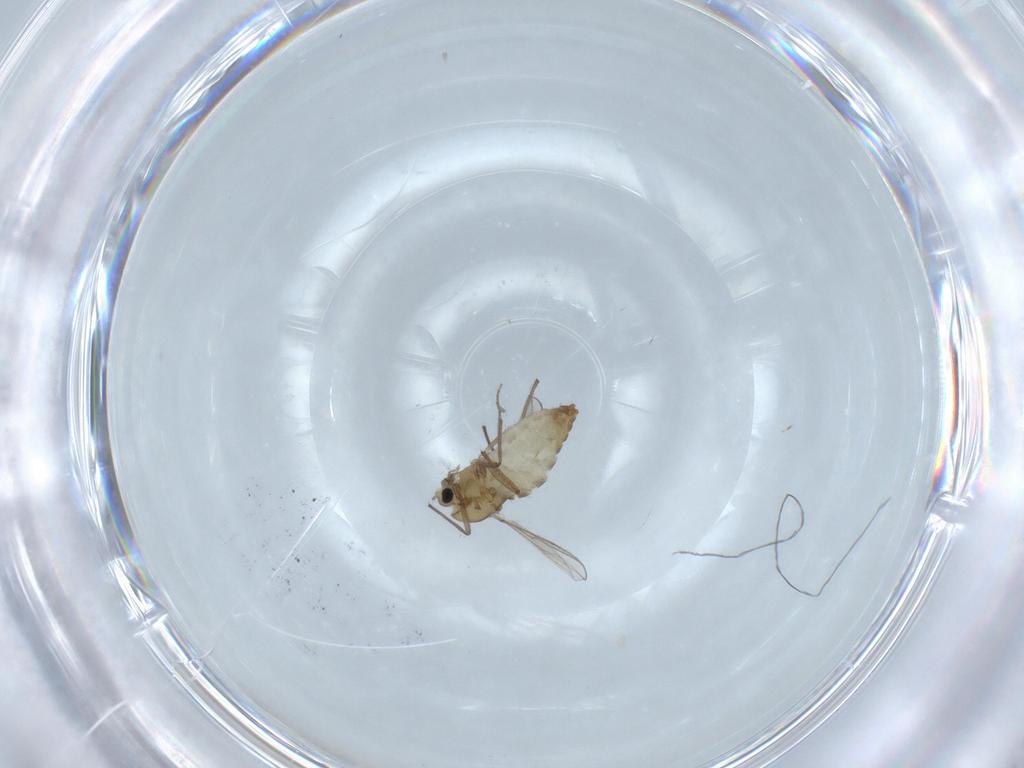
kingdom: Animalia
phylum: Arthropoda
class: Insecta
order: Diptera
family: Chironomidae
